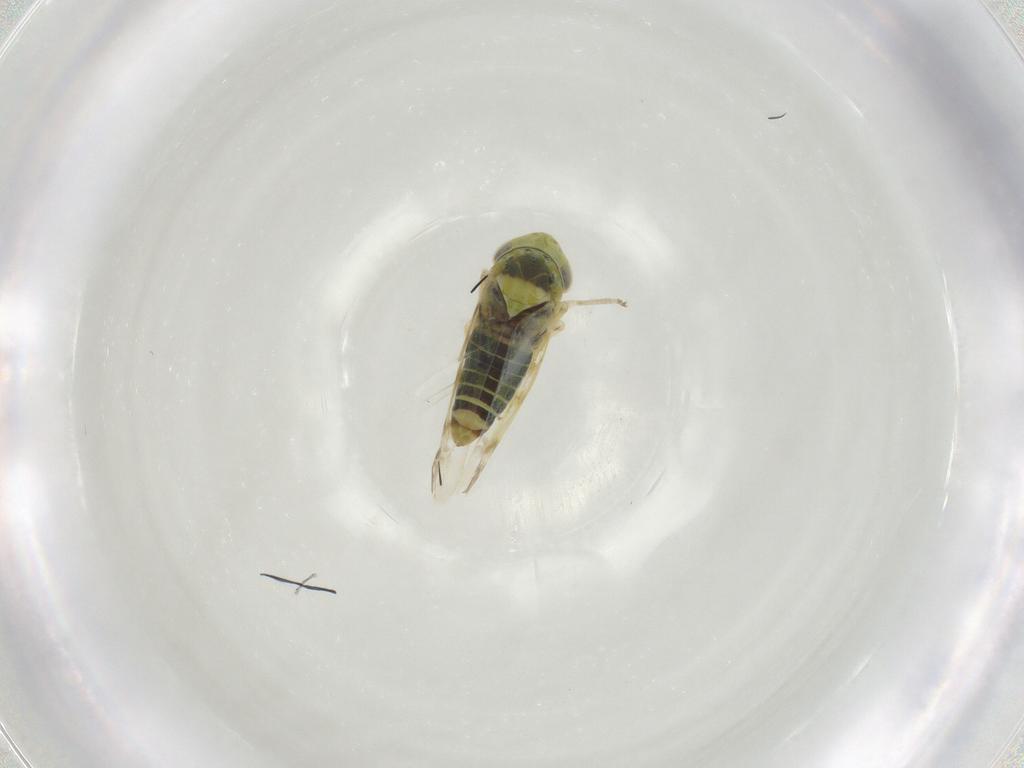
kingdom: Animalia
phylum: Arthropoda
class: Insecta
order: Hemiptera
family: Cicadellidae
